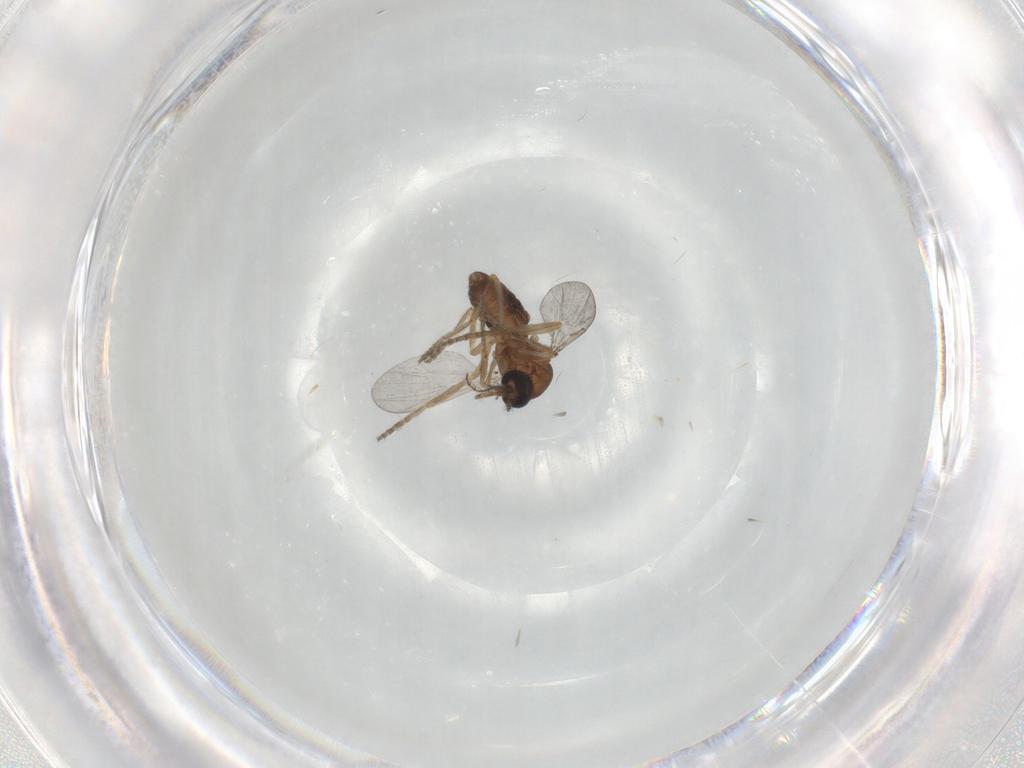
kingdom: Animalia
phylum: Arthropoda
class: Insecta
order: Diptera
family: Ceratopogonidae
